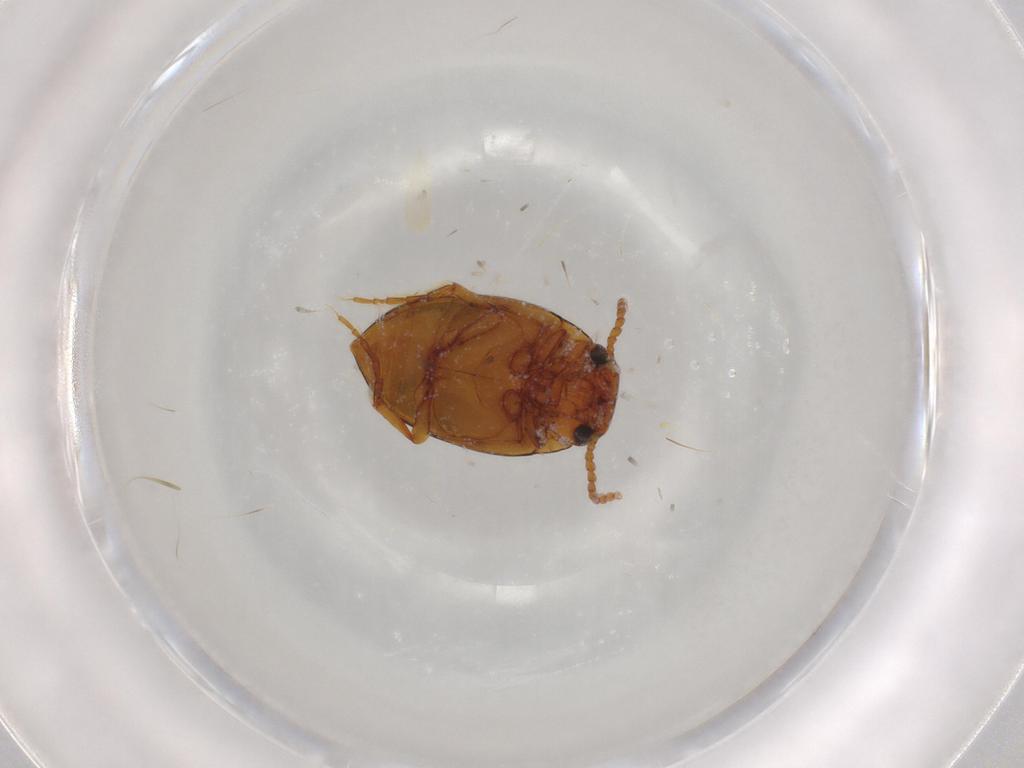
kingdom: Animalia
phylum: Arthropoda
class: Insecta
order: Coleoptera
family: Dytiscidae
